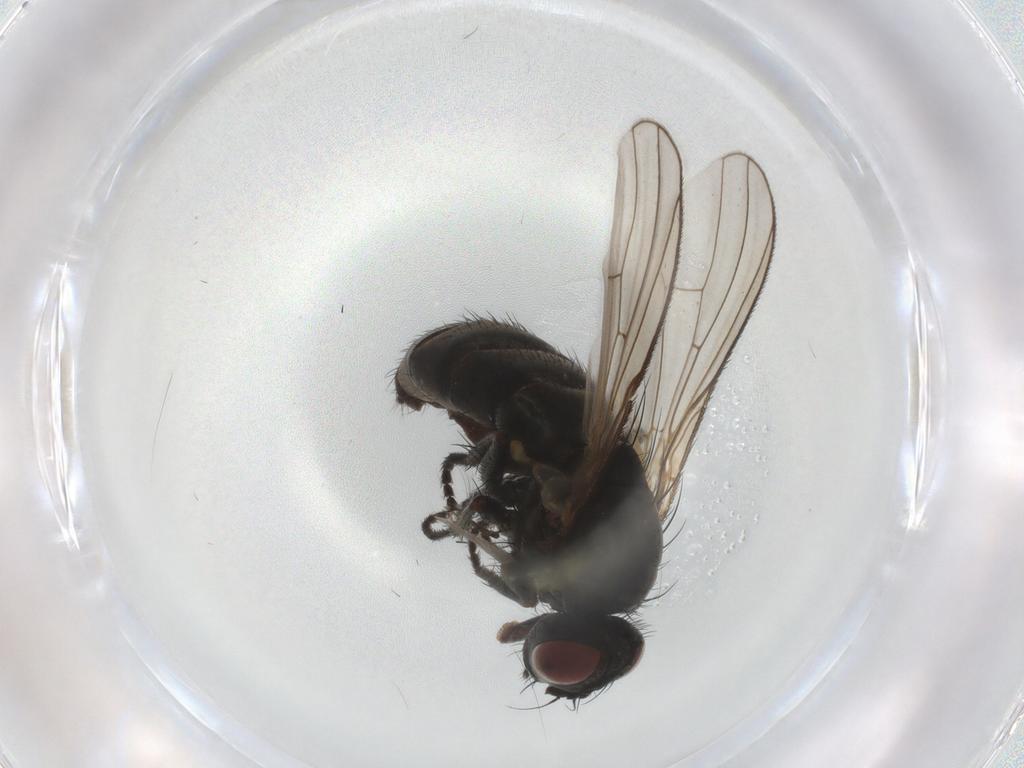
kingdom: Animalia
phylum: Arthropoda
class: Insecta
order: Diptera
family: Muscidae
